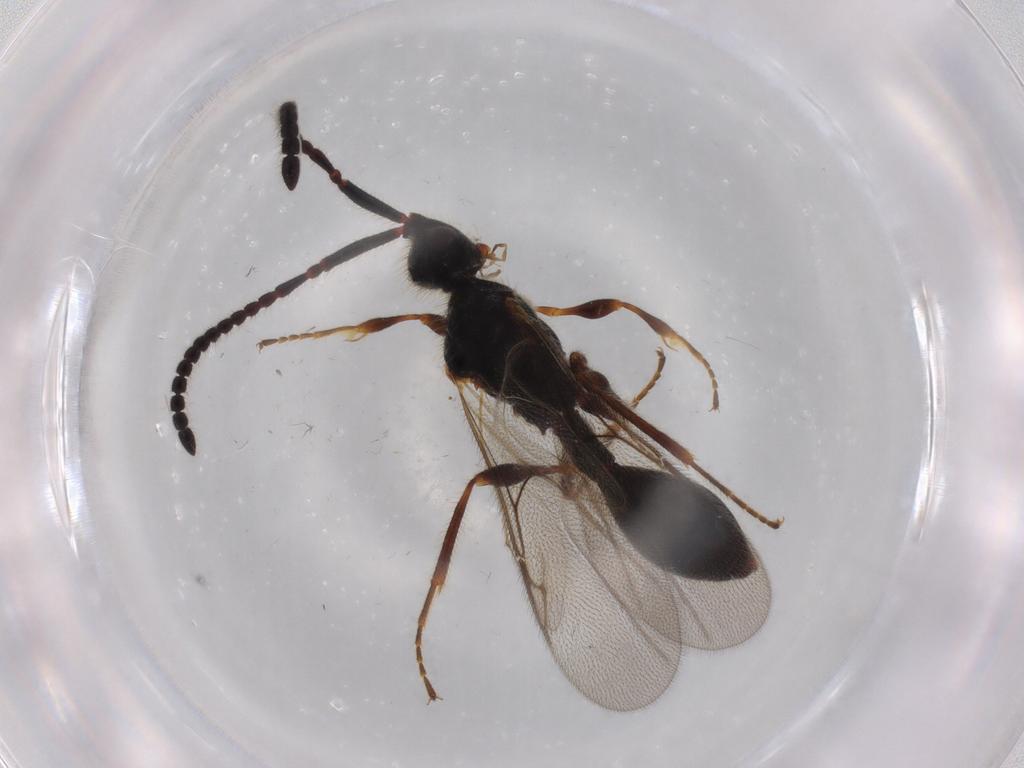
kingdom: Animalia
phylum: Arthropoda
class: Insecta
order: Hymenoptera
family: Diapriidae
